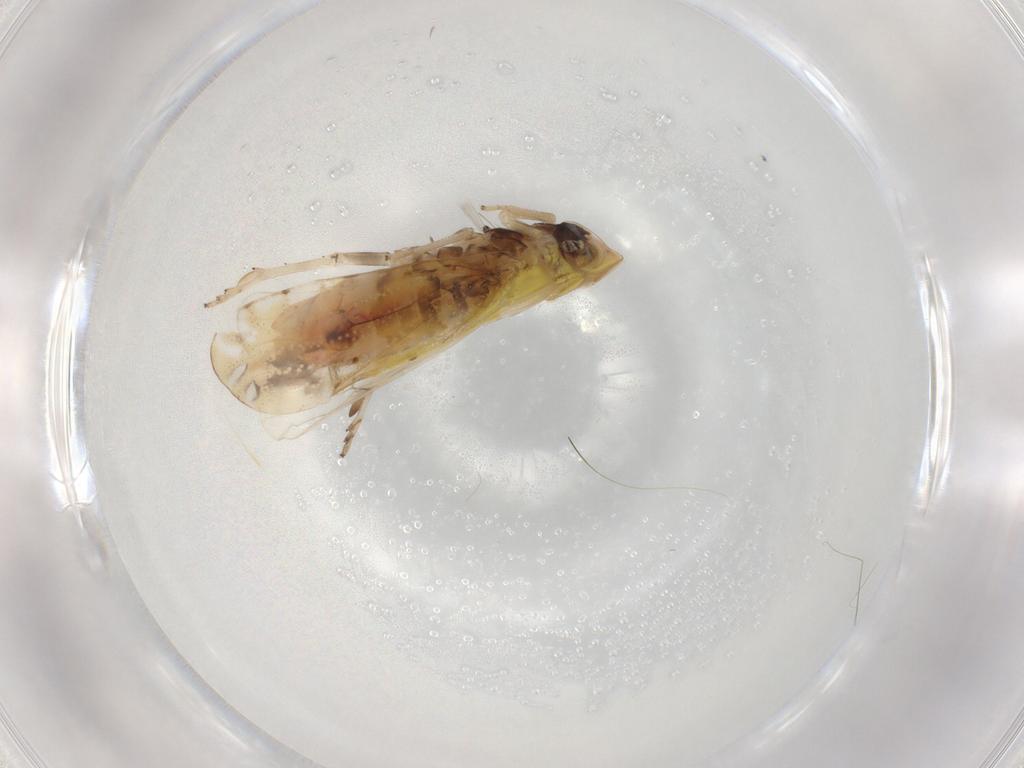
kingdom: Animalia
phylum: Arthropoda
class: Insecta
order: Hemiptera
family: Delphacidae
